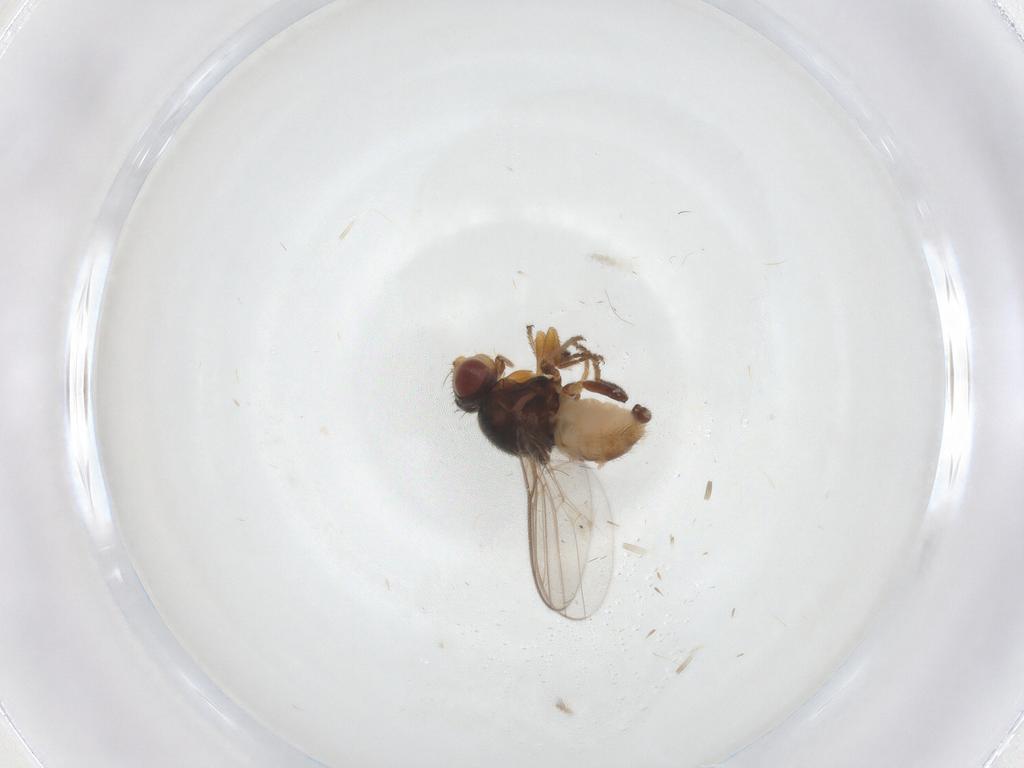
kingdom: Animalia
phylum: Arthropoda
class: Insecta
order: Diptera
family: Chloropidae
